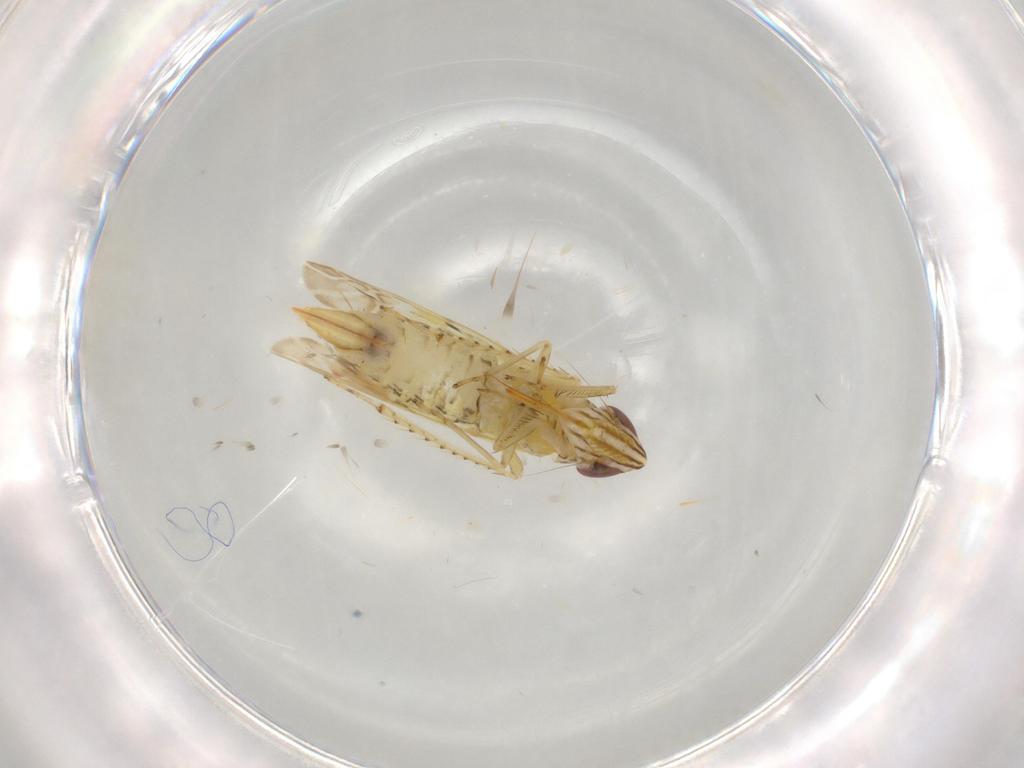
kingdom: Animalia
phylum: Arthropoda
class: Insecta
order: Hemiptera
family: Cicadellidae
